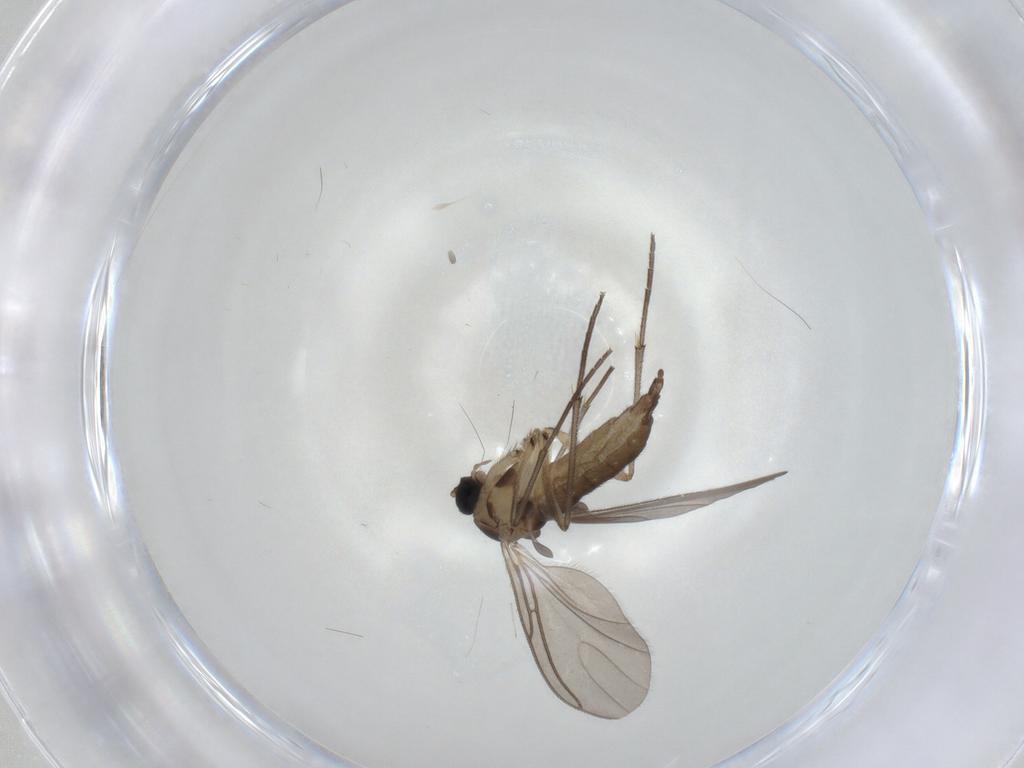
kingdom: Animalia
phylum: Arthropoda
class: Insecta
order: Diptera
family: Sciaridae
